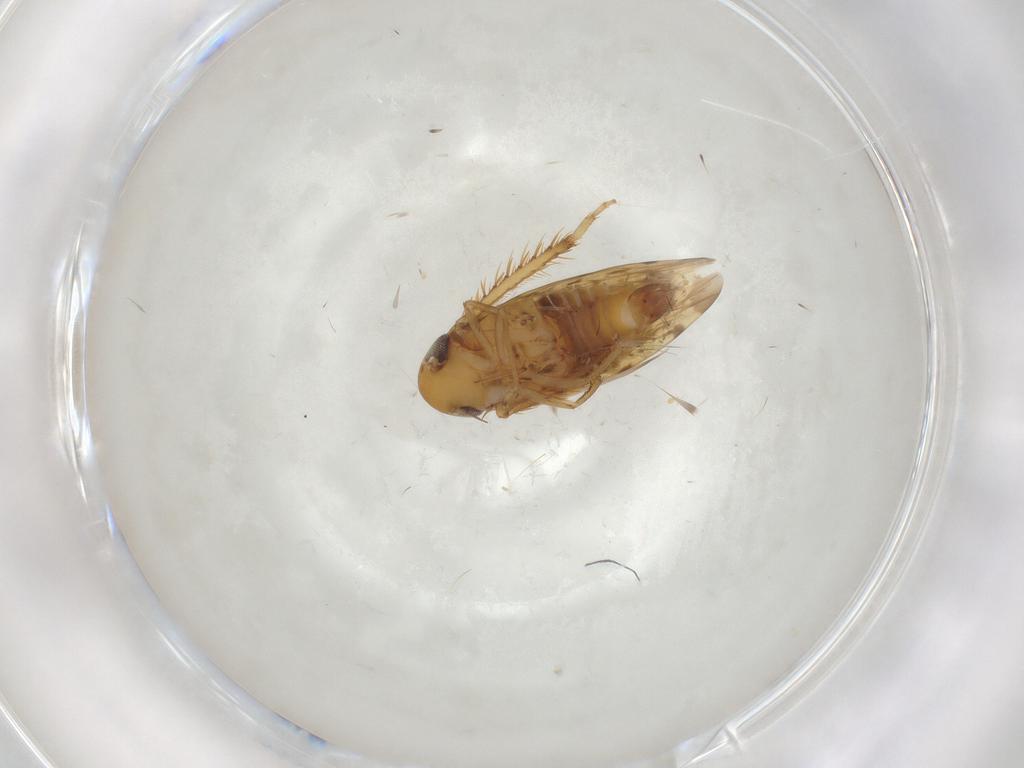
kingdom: Animalia
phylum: Arthropoda
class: Insecta
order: Hemiptera
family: Cicadellidae
